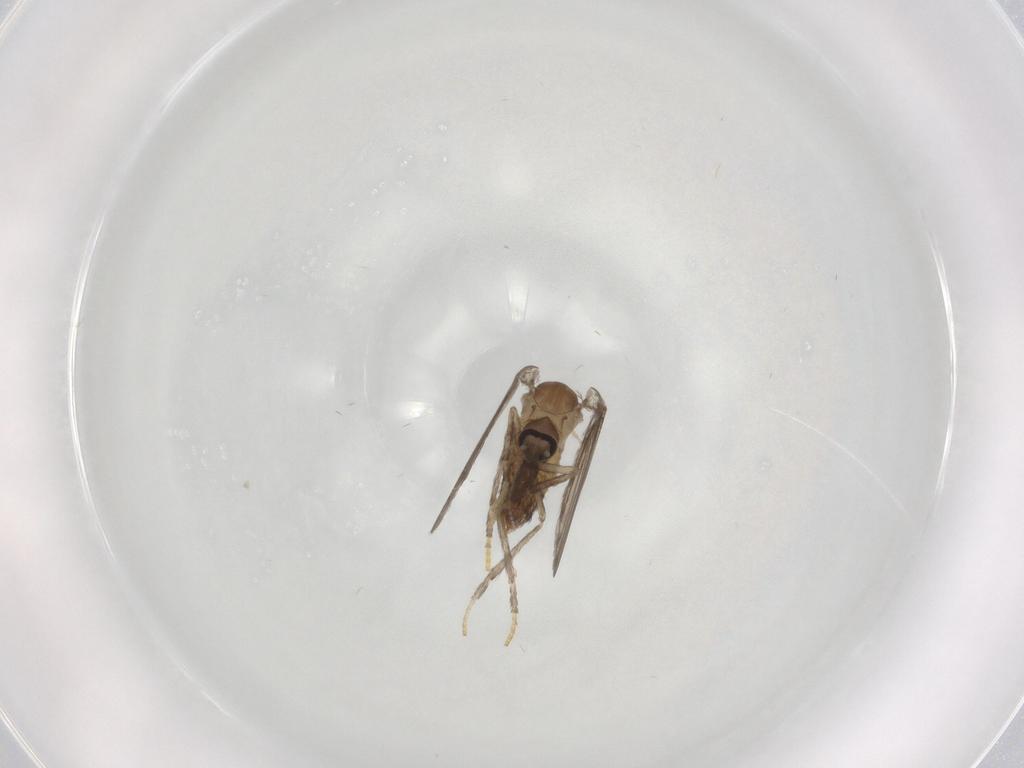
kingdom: Animalia
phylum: Arthropoda
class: Insecta
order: Diptera
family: Psychodidae
